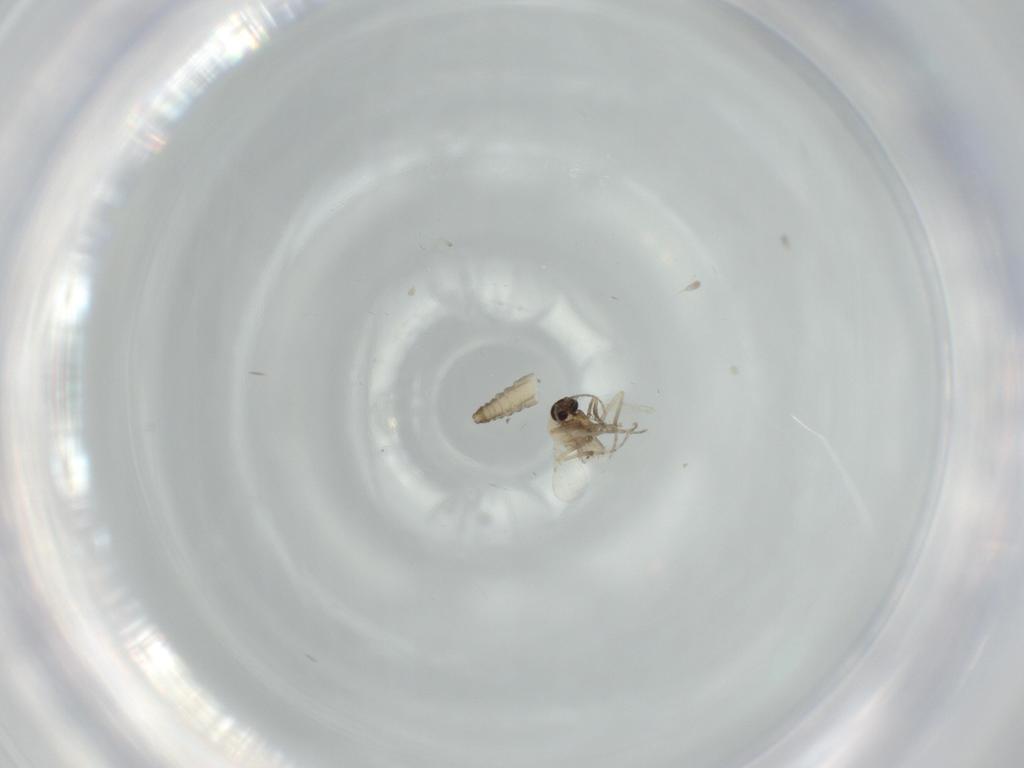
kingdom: Animalia
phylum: Arthropoda
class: Insecta
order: Diptera
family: Ceratopogonidae
